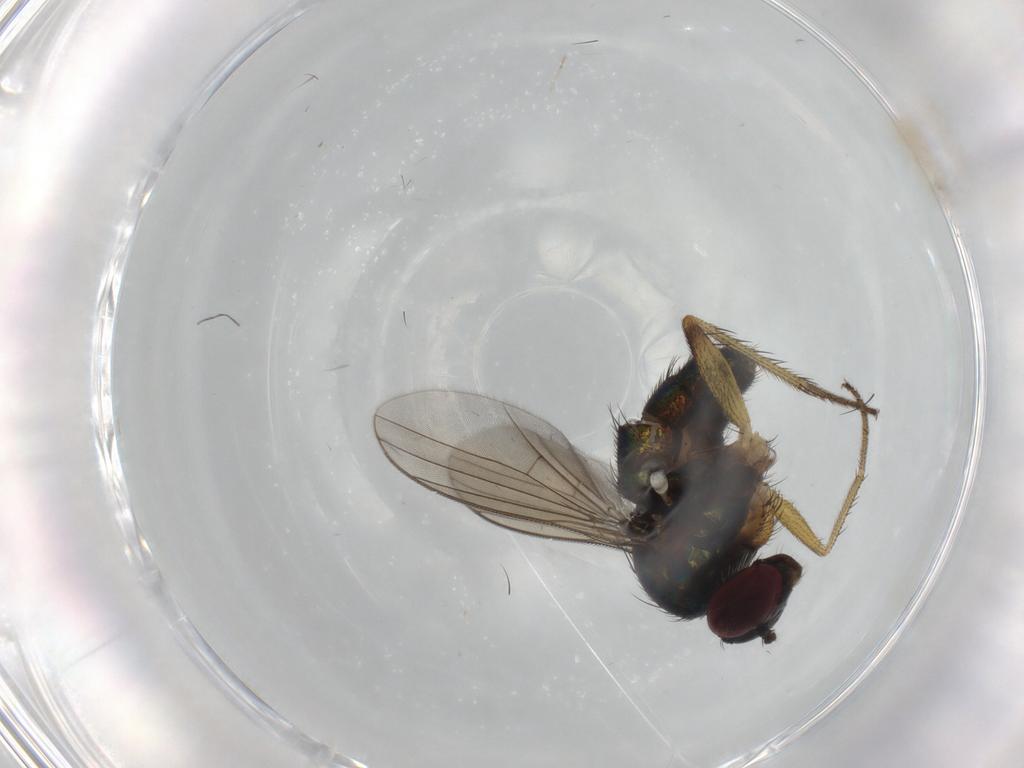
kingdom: Animalia
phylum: Arthropoda
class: Insecta
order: Diptera
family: Dolichopodidae
